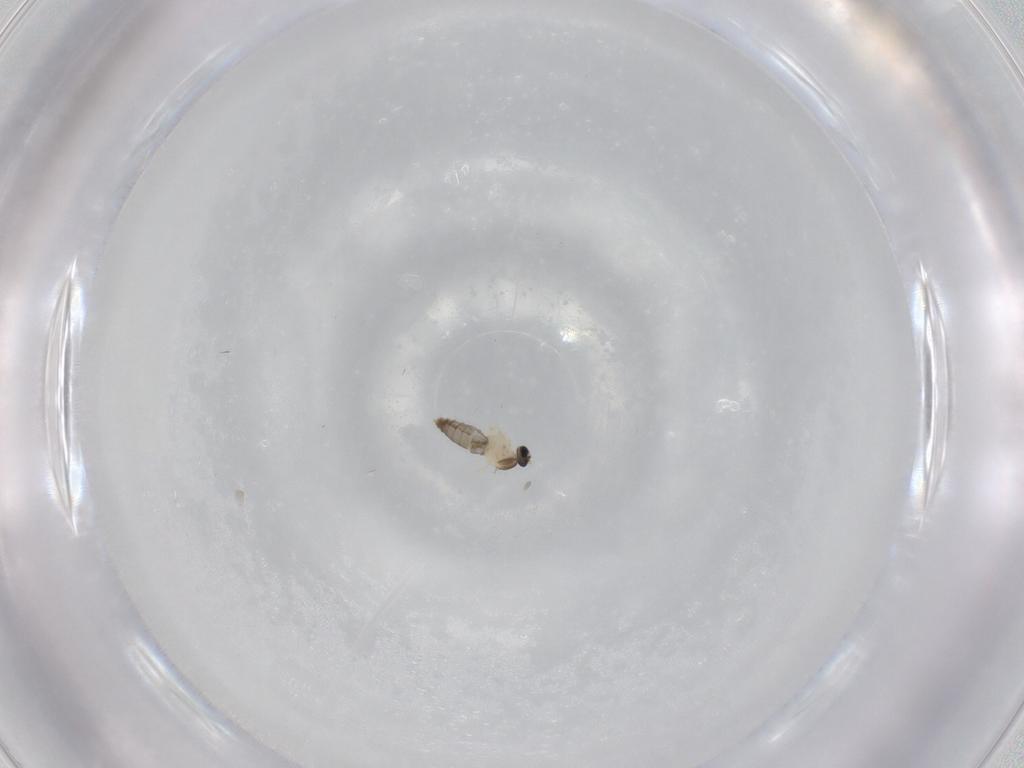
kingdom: Animalia
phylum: Arthropoda
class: Insecta
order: Diptera
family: Cecidomyiidae
